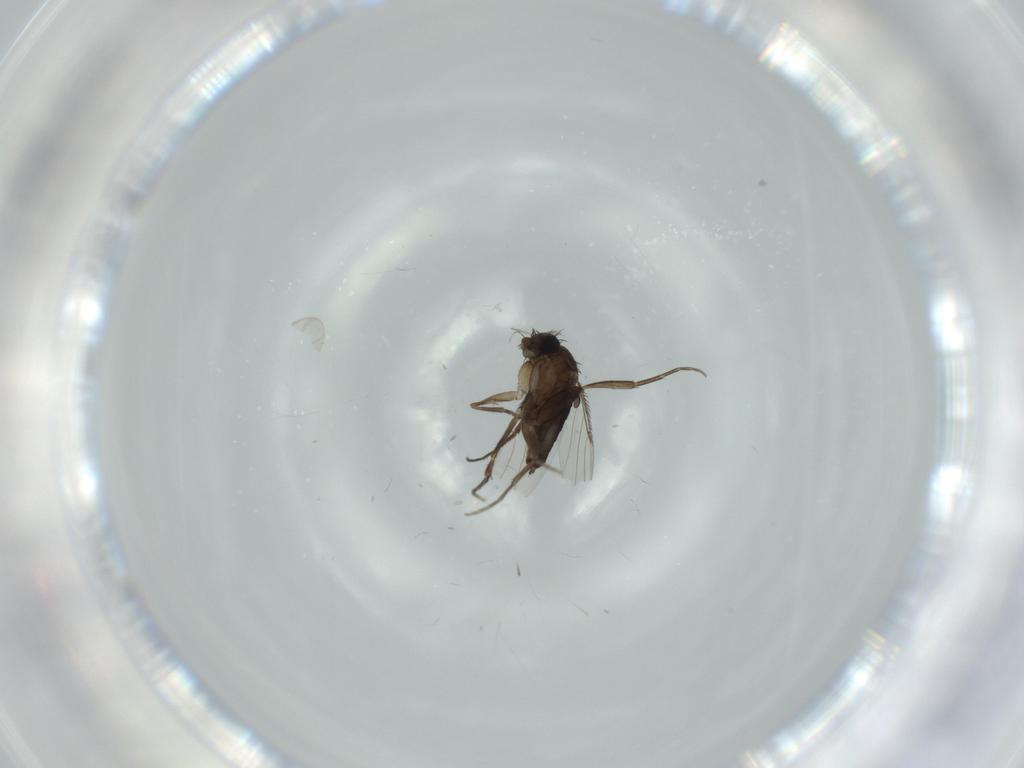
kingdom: Animalia
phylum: Arthropoda
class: Insecta
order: Diptera
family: Phoridae
